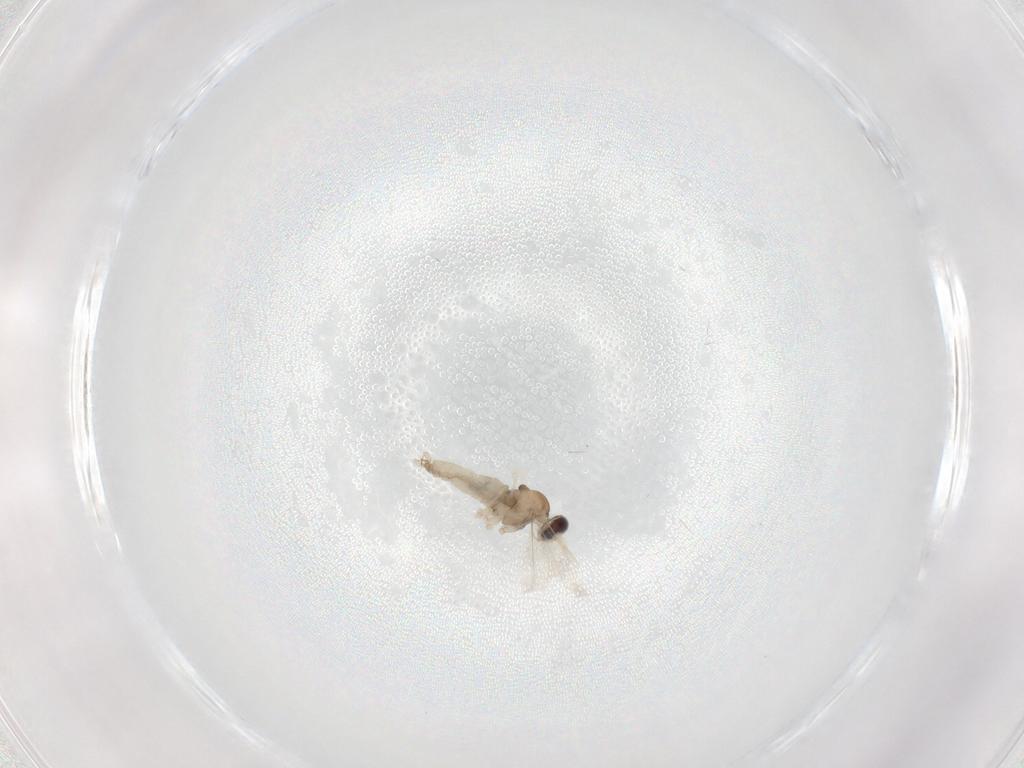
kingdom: Animalia
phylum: Arthropoda
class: Insecta
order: Diptera
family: Cecidomyiidae
